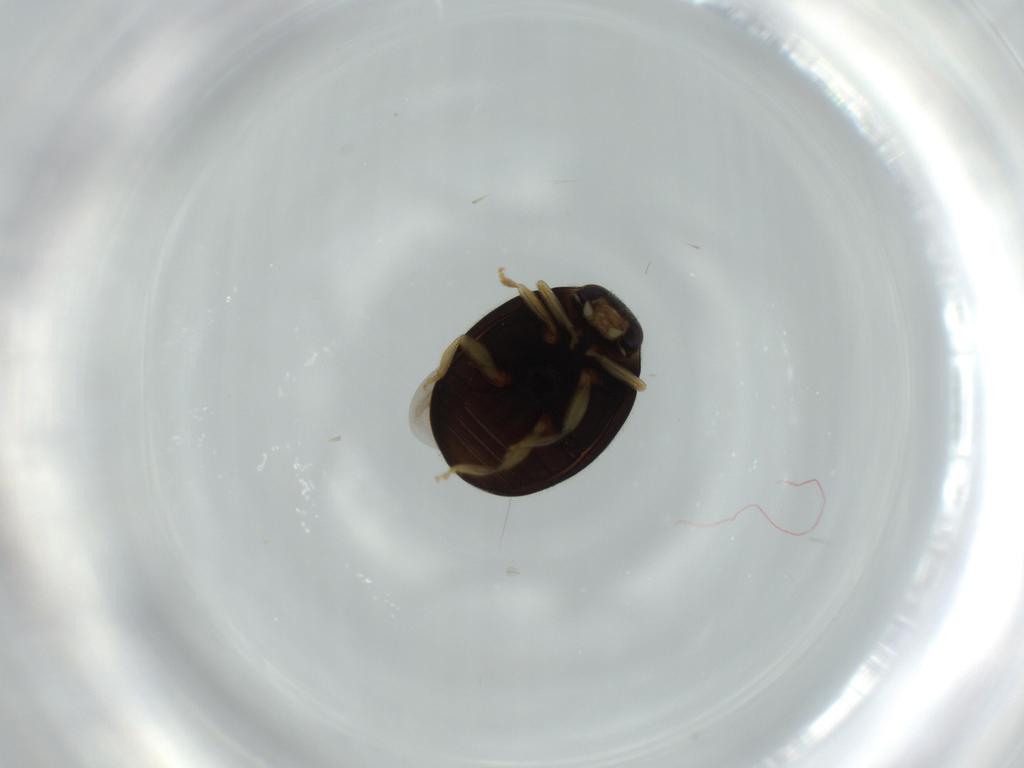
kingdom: Animalia
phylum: Arthropoda
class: Insecta
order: Coleoptera
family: Coccinellidae
